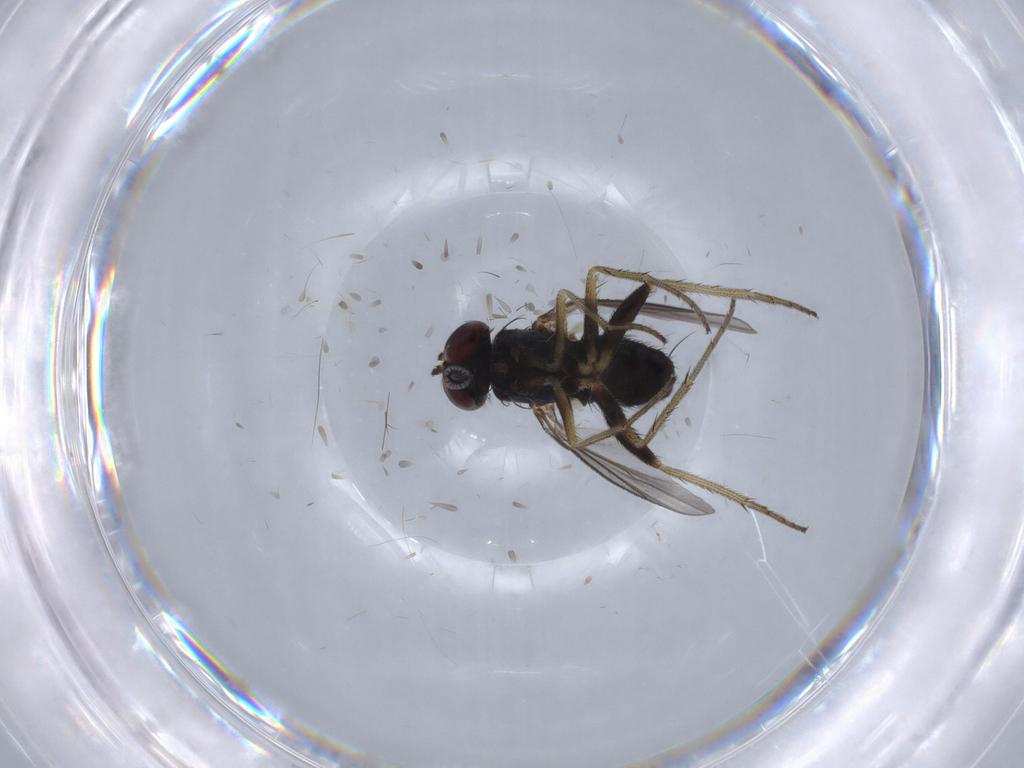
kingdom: Animalia
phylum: Arthropoda
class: Insecta
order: Diptera
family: Dolichopodidae
